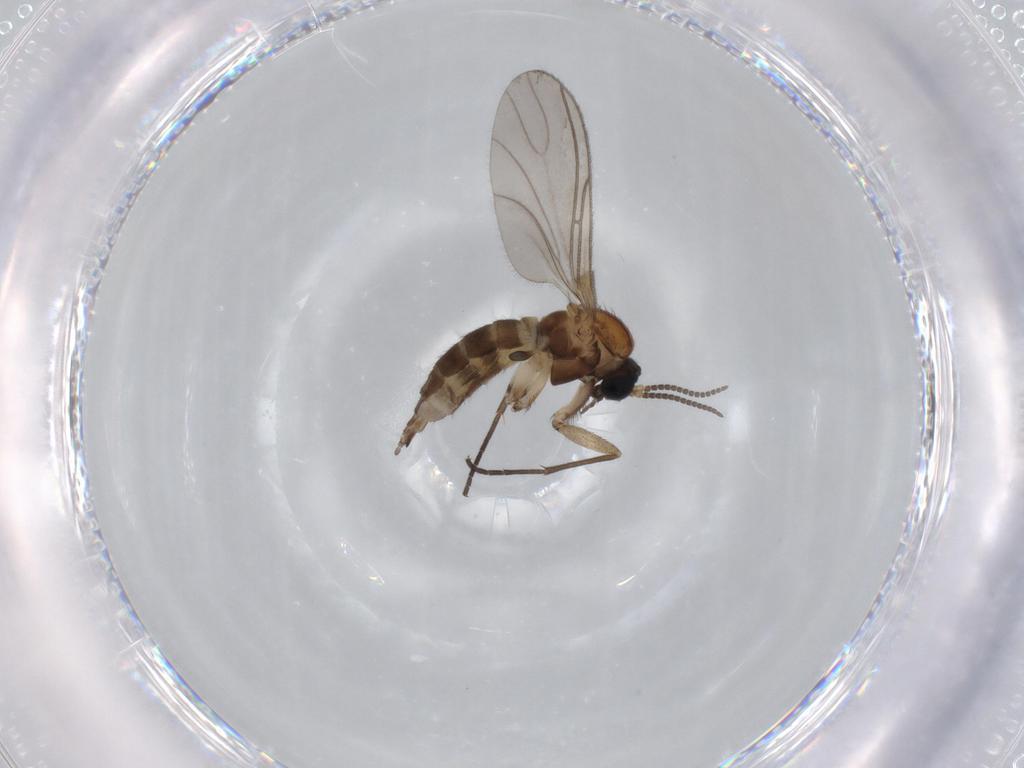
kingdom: Animalia
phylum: Arthropoda
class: Insecta
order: Diptera
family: Sciaridae
